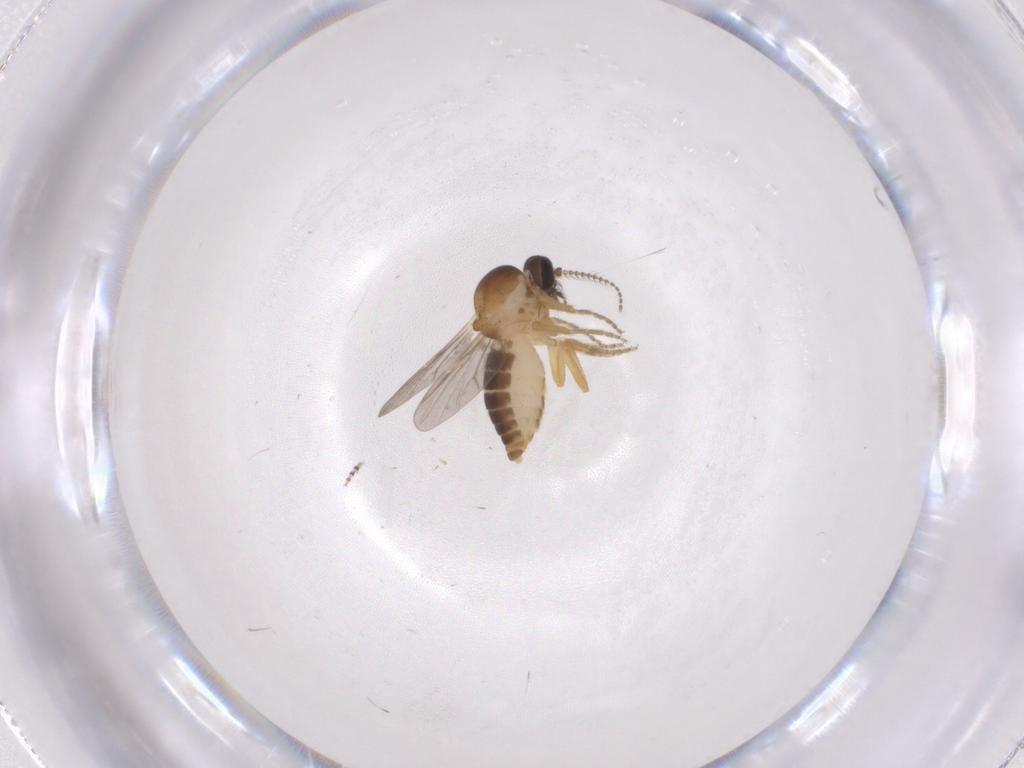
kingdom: Animalia
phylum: Arthropoda
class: Insecta
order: Diptera
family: Ceratopogonidae
